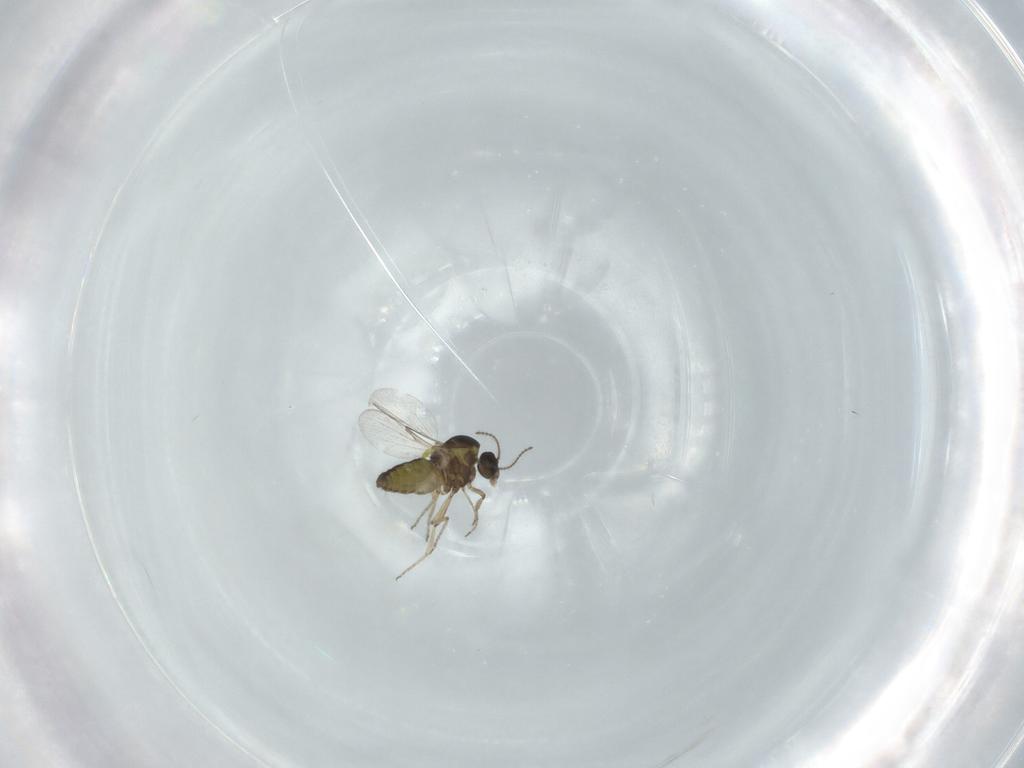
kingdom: Animalia
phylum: Arthropoda
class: Insecta
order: Diptera
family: Ceratopogonidae
